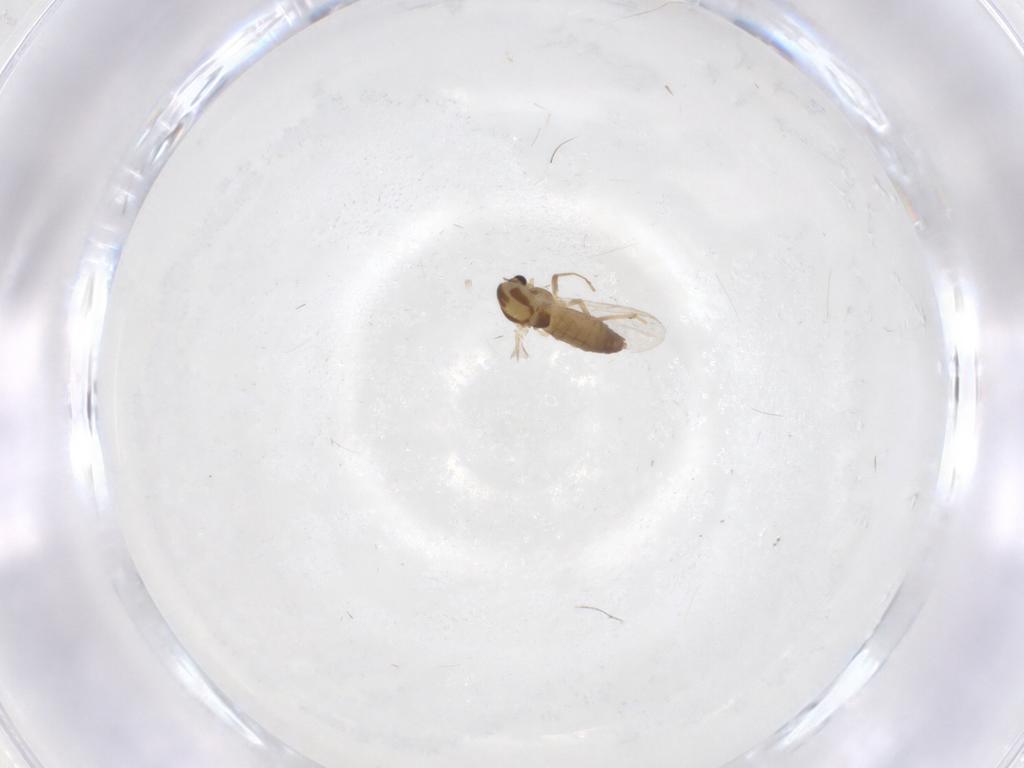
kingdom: Animalia
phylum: Arthropoda
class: Insecta
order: Diptera
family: Chironomidae
